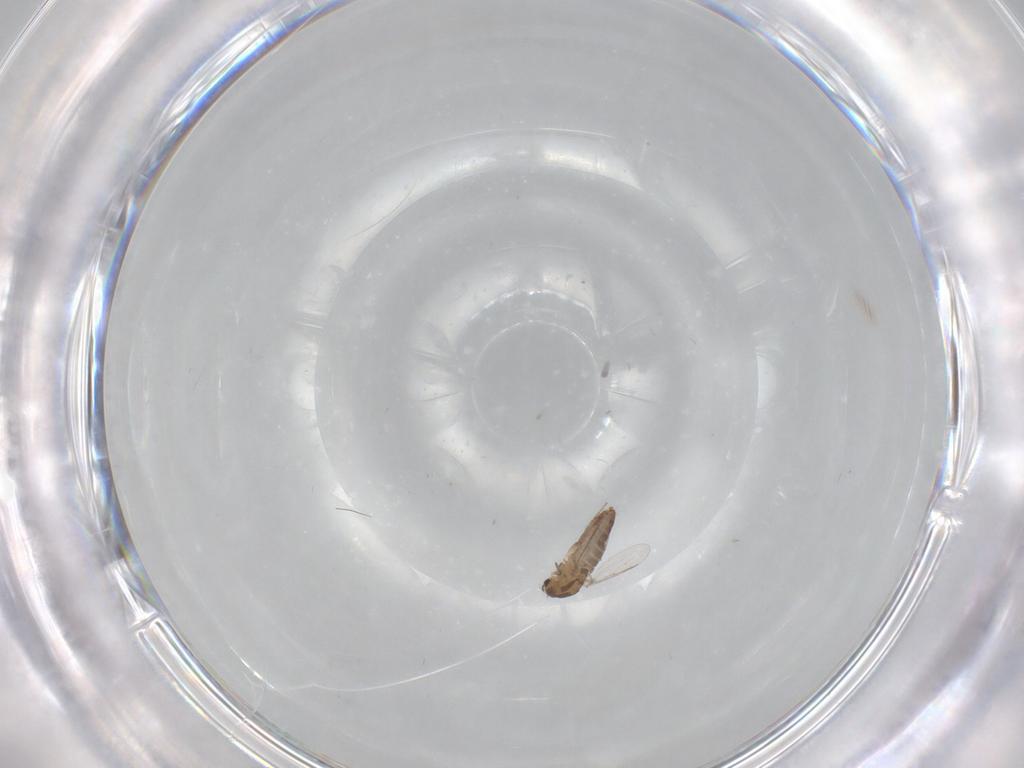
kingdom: Animalia
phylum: Arthropoda
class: Insecta
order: Diptera
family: Chironomidae
